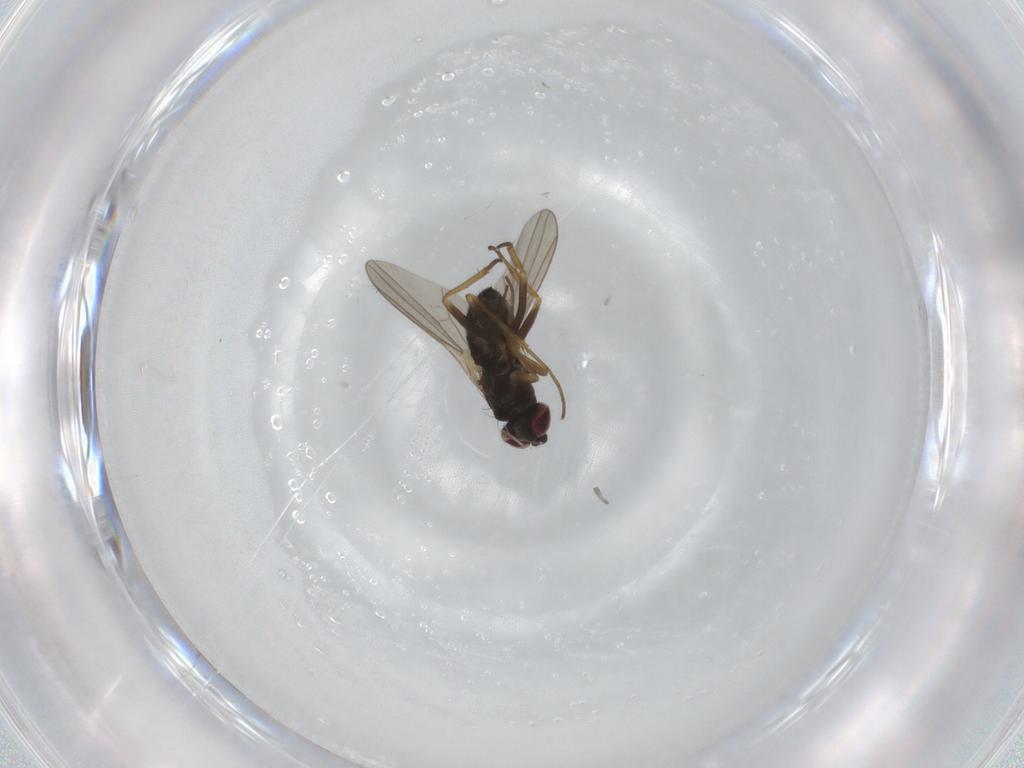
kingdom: Animalia
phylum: Arthropoda
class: Insecta
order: Diptera
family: Dolichopodidae
